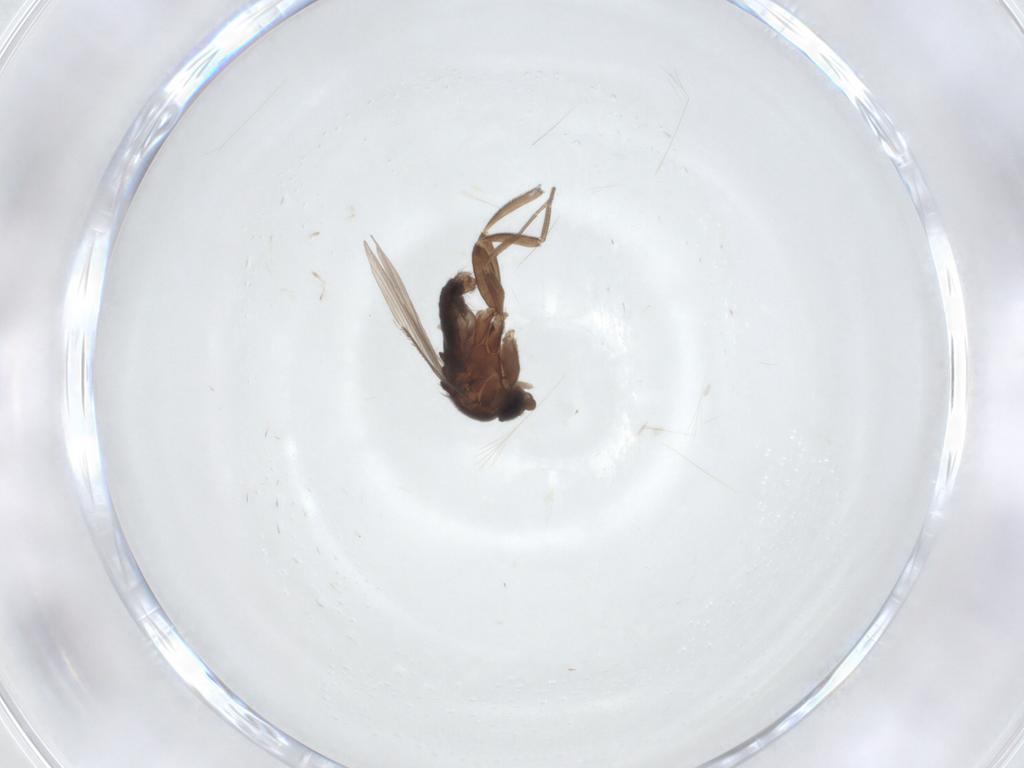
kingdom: Animalia
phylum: Arthropoda
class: Insecta
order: Diptera
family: Phoridae
